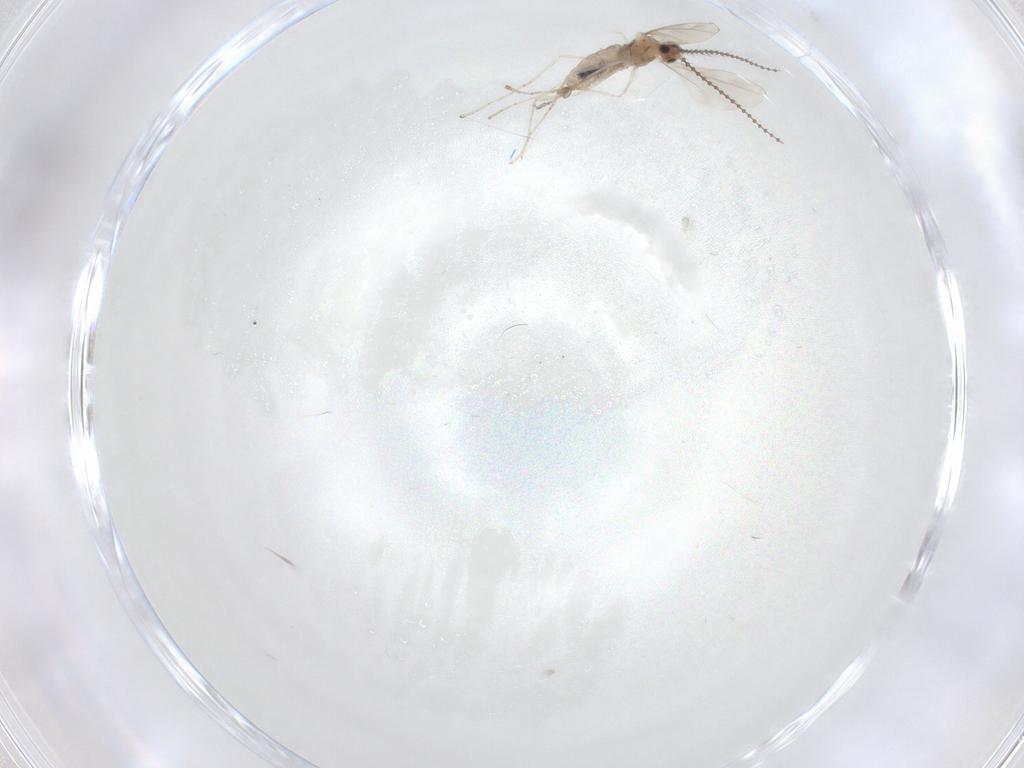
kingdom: Animalia
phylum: Arthropoda
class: Insecta
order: Diptera
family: Chironomidae
